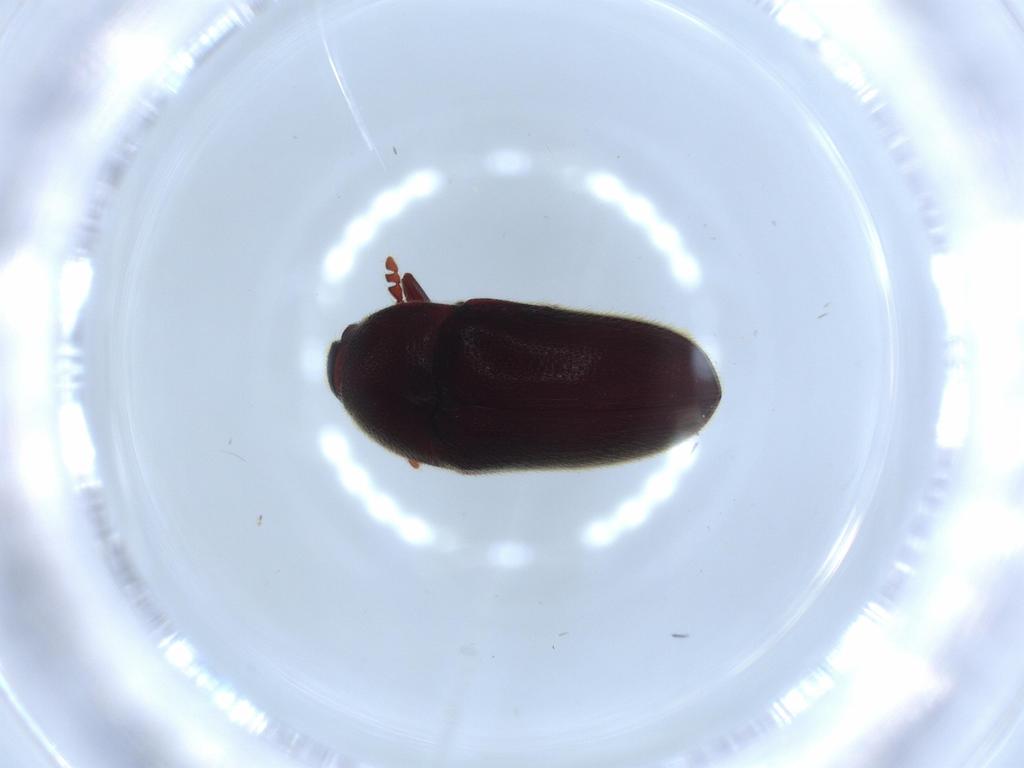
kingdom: Animalia
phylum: Arthropoda
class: Insecta
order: Coleoptera
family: Throscidae
